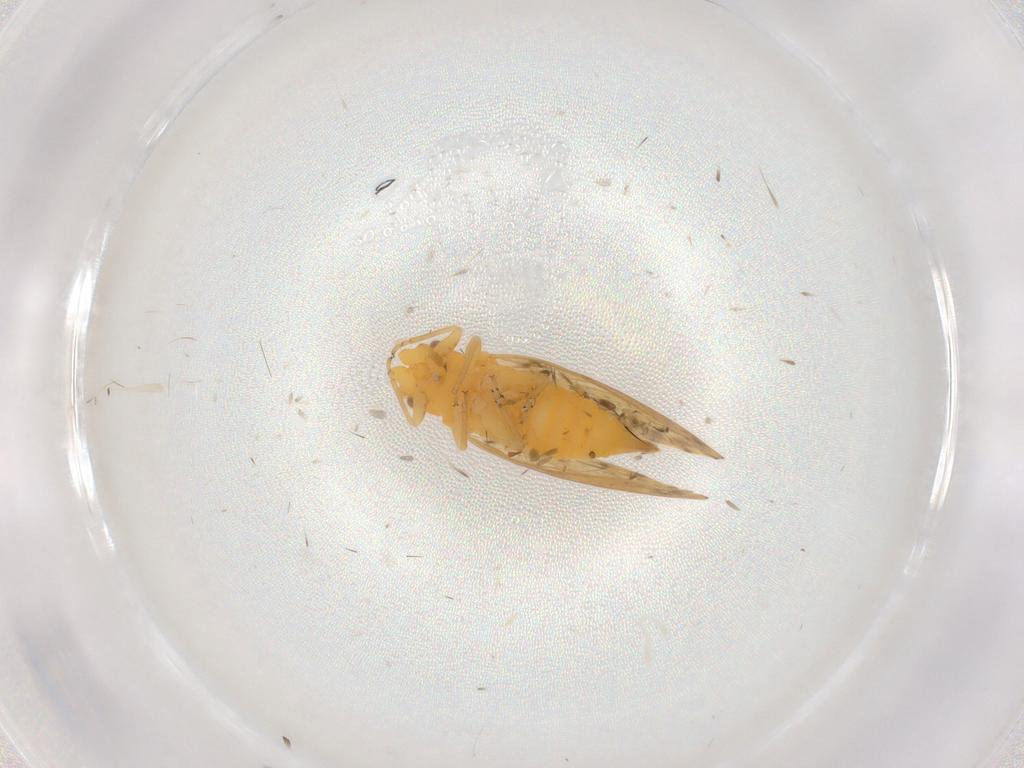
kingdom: Animalia
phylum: Arthropoda
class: Insecta
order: Hemiptera
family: Psyllidae
